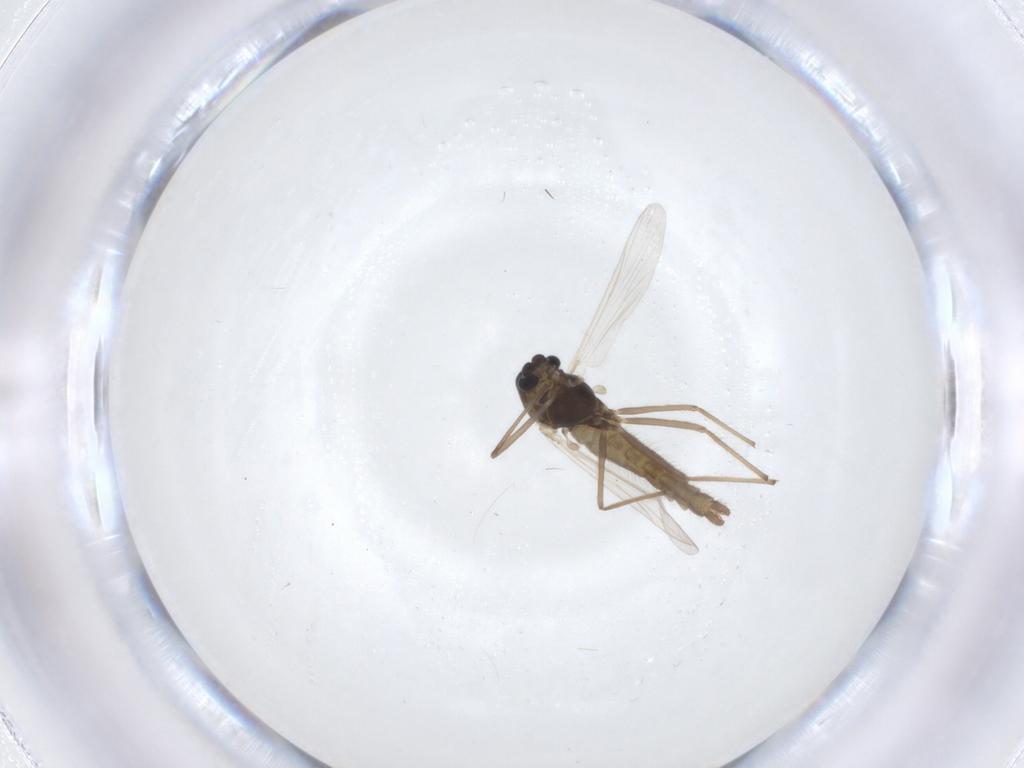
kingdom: Animalia
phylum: Arthropoda
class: Insecta
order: Diptera
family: Chironomidae
